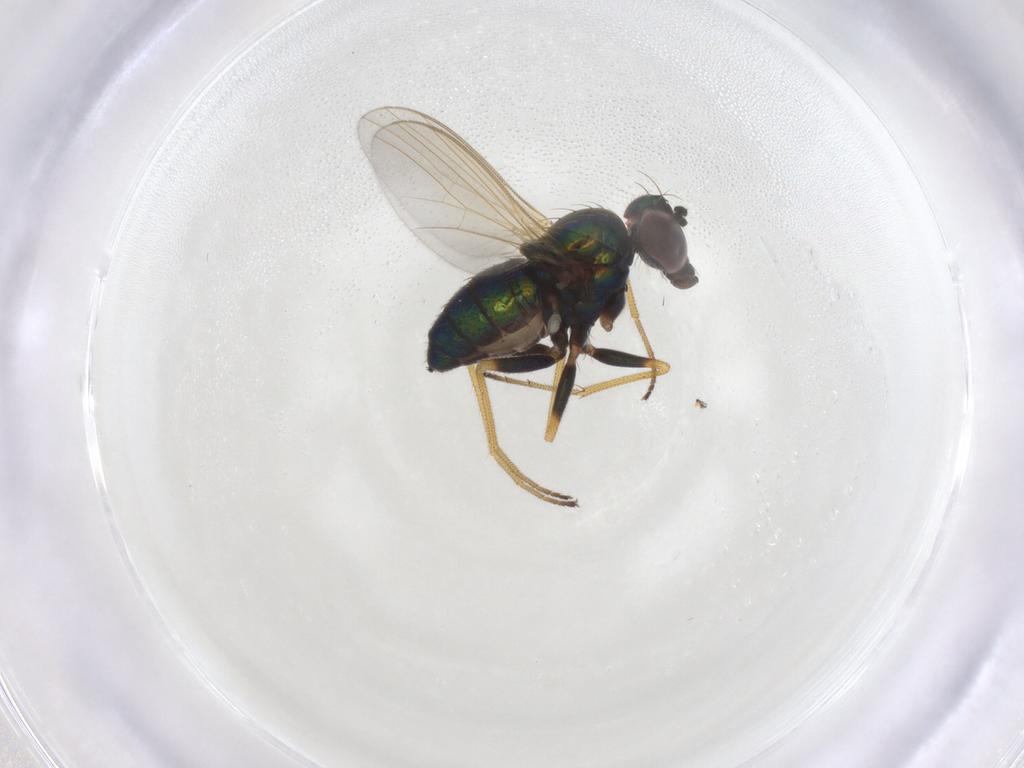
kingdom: Animalia
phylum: Arthropoda
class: Insecta
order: Diptera
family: Dolichopodidae
